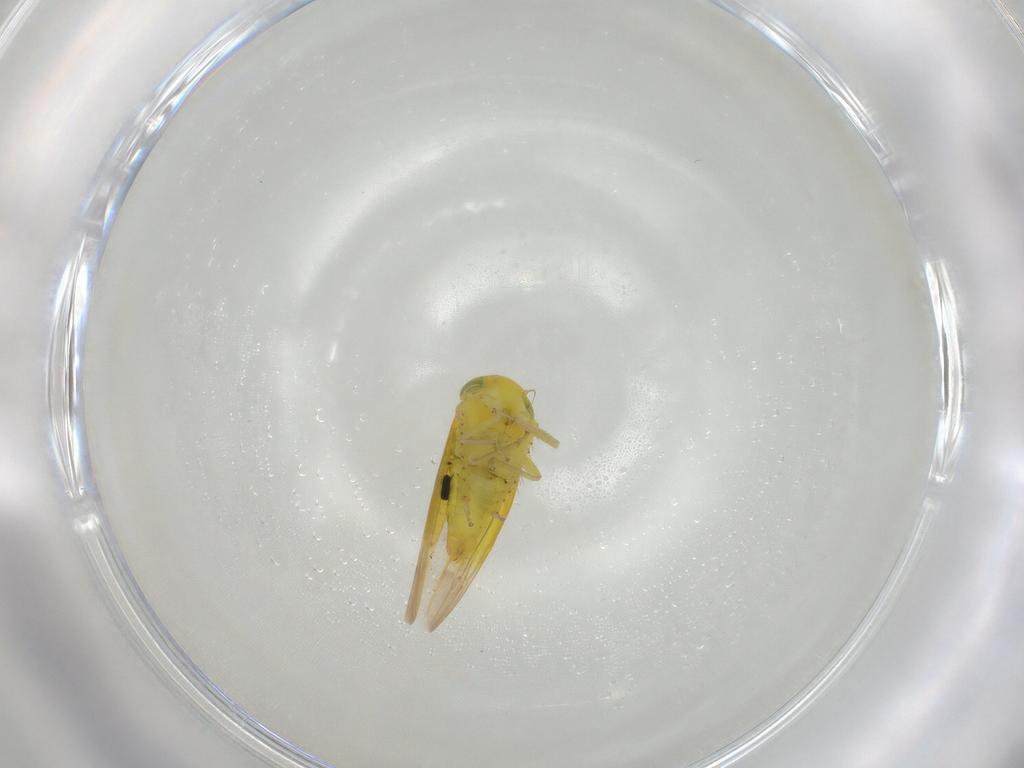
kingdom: Animalia
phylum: Arthropoda
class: Insecta
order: Hemiptera
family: Cicadellidae
